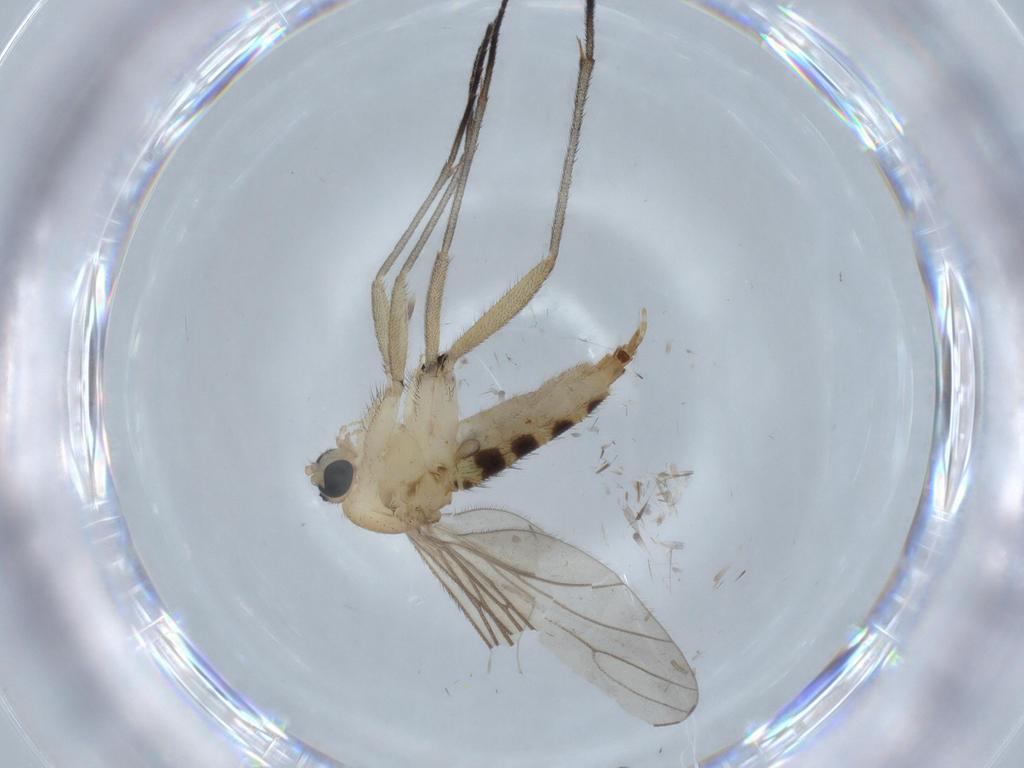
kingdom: Animalia
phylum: Arthropoda
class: Insecta
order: Diptera
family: Sciaridae
